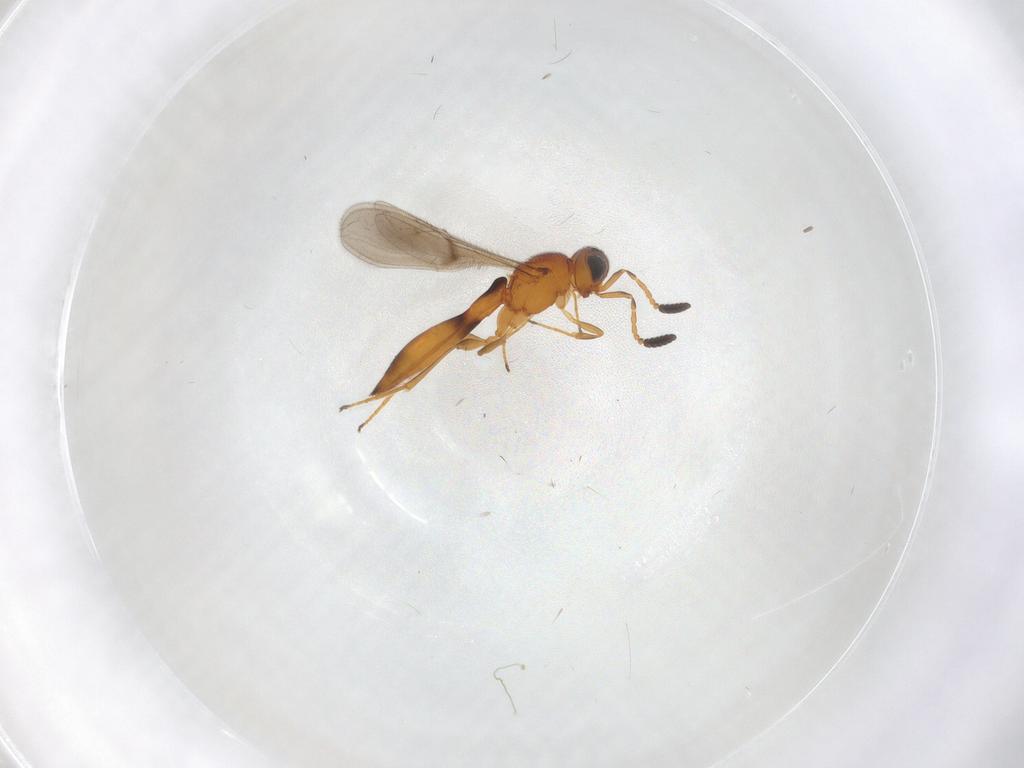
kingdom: Animalia
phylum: Arthropoda
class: Insecta
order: Hymenoptera
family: Scelionidae
